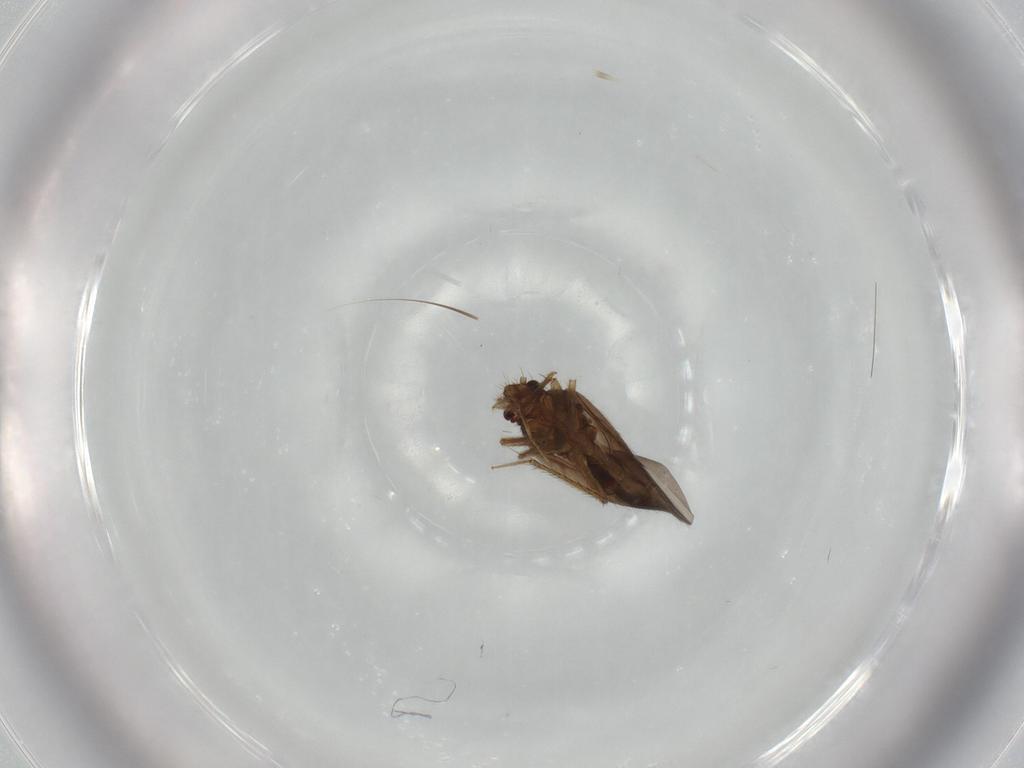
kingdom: Animalia
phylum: Arthropoda
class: Insecta
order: Hemiptera
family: Ceratocombidae
